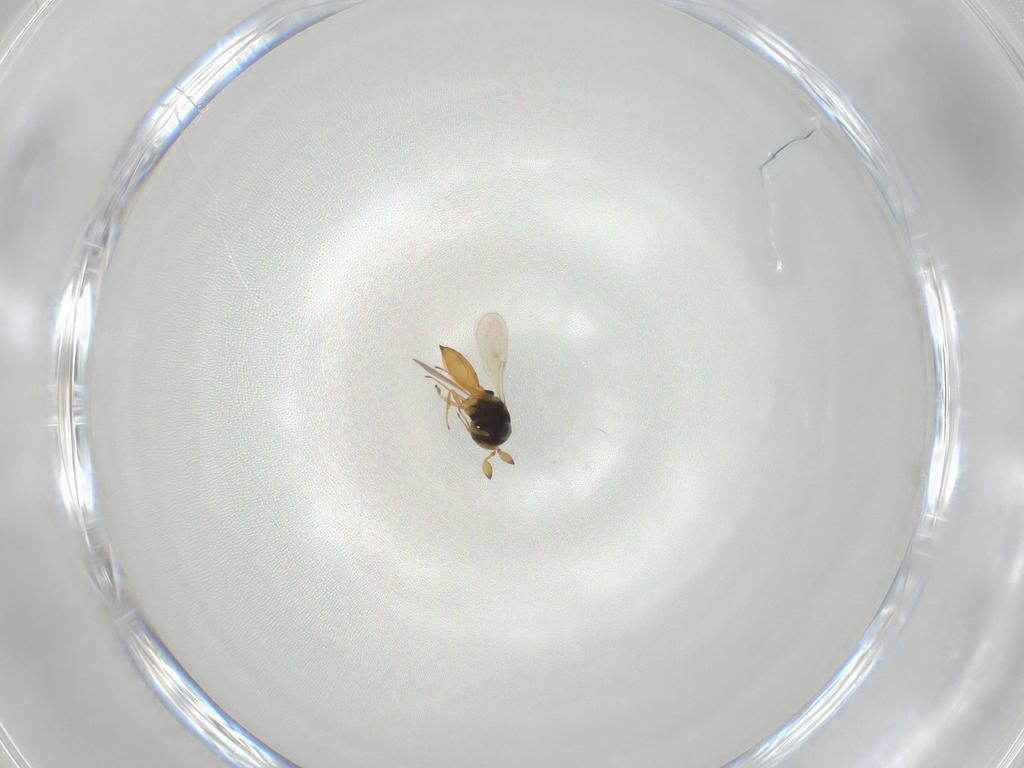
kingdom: Animalia
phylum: Arthropoda
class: Insecta
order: Hymenoptera
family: Scelionidae
